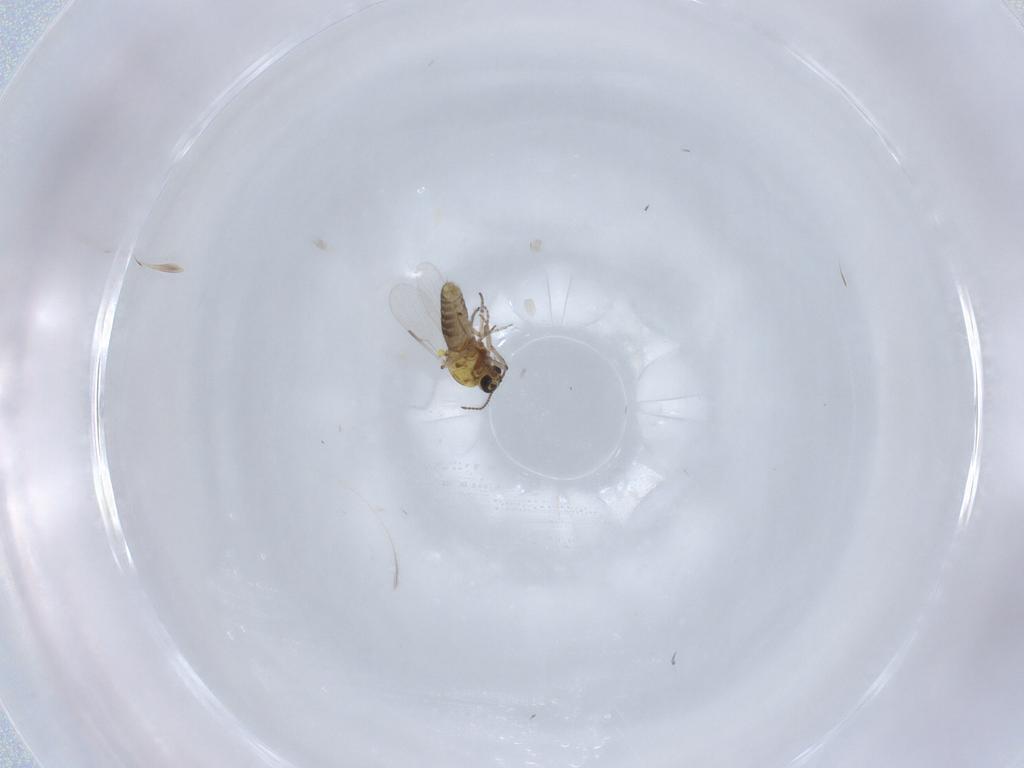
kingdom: Animalia
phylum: Arthropoda
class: Insecta
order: Diptera
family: Ceratopogonidae
